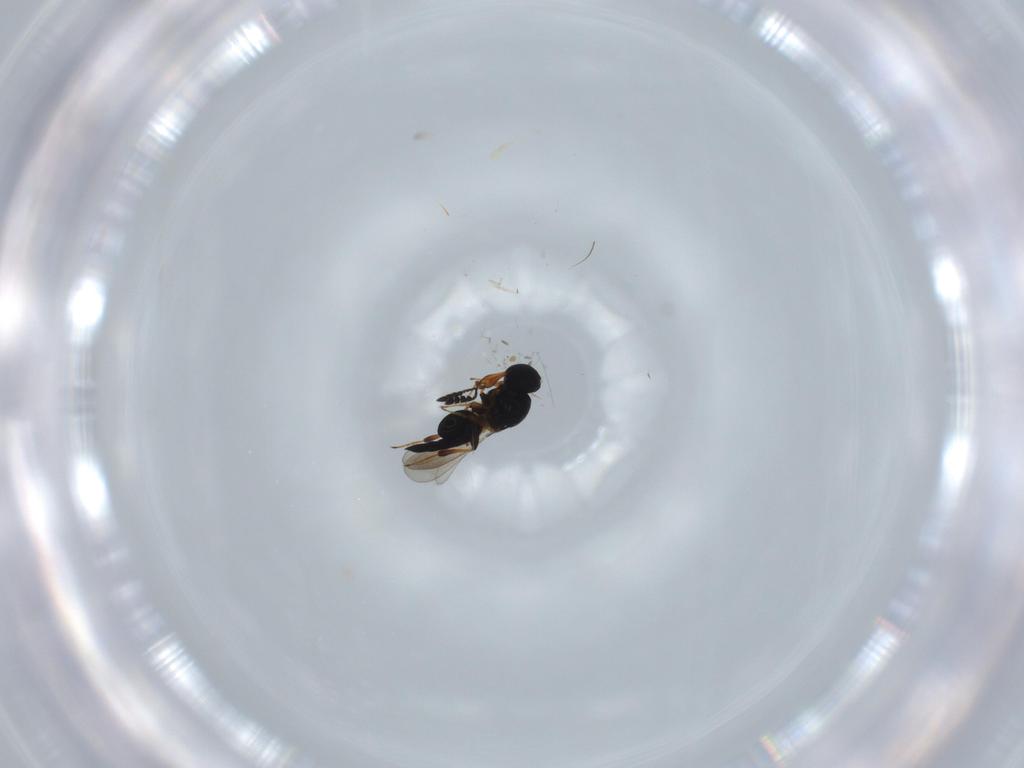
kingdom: Animalia
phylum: Arthropoda
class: Insecta
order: Hymenoptera
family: Platygastridae
